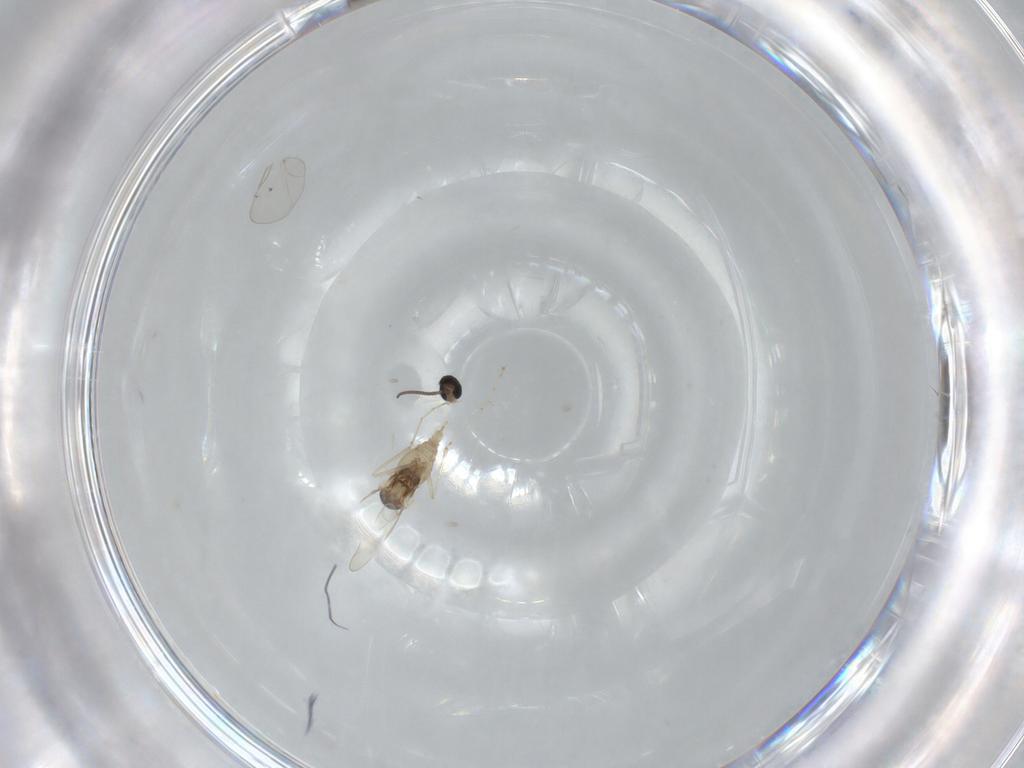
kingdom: Animalia
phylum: Arthropoda
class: Insecta
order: Diptera
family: Cecidomyiidae
